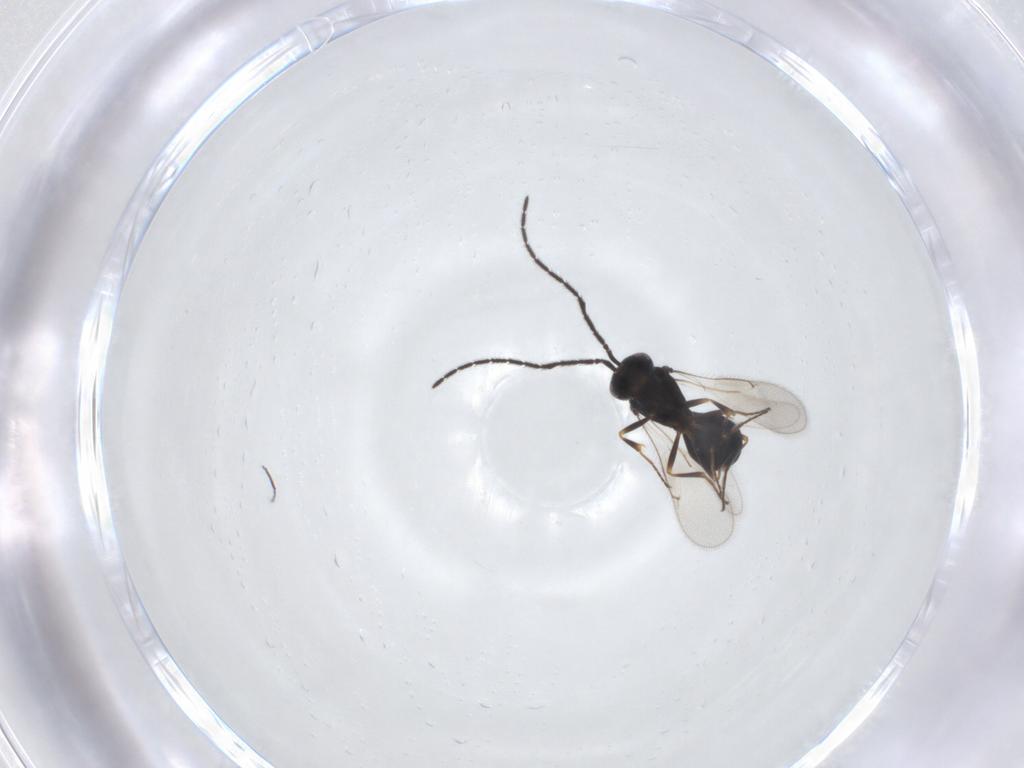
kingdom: Animalia
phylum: Arthropoda
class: Insecta
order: Hymenoptera
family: Scelionidae
